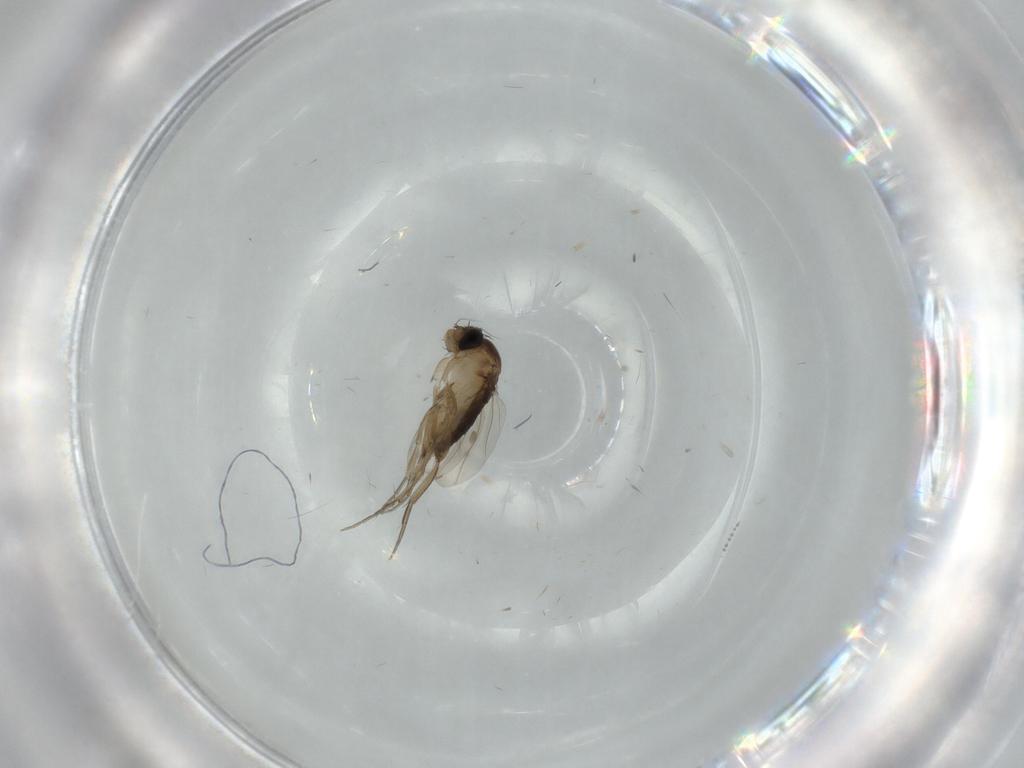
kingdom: Animalia
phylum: Arthropoda
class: Insecta
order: Diptera
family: Phoridae
